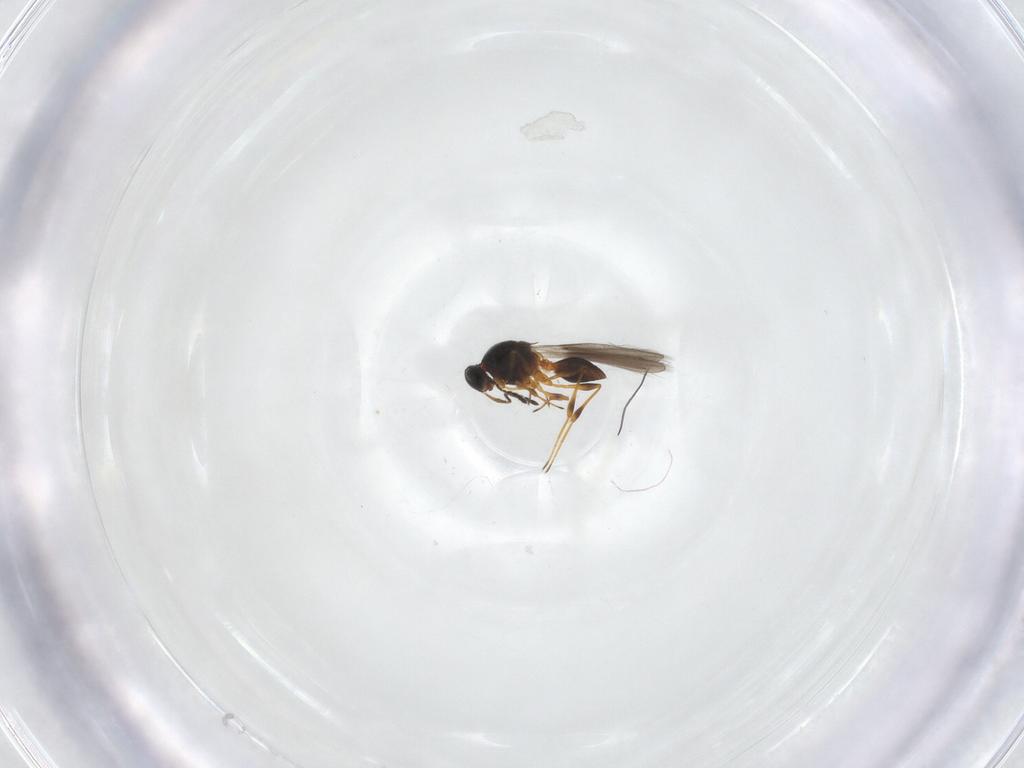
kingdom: Animalia
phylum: Arthropoda
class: Insecta
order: Hymenoptera
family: Platygastridae
